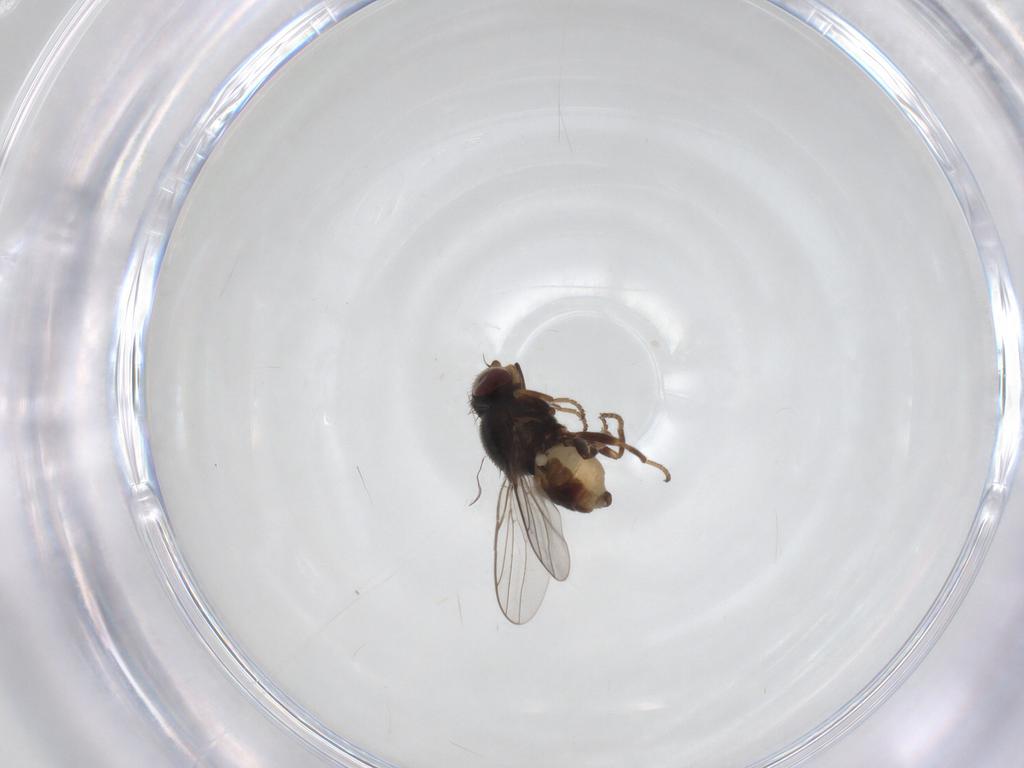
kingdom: Animalia
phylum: Arthropoda
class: Insecta
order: Diptera
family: Chloropidae
